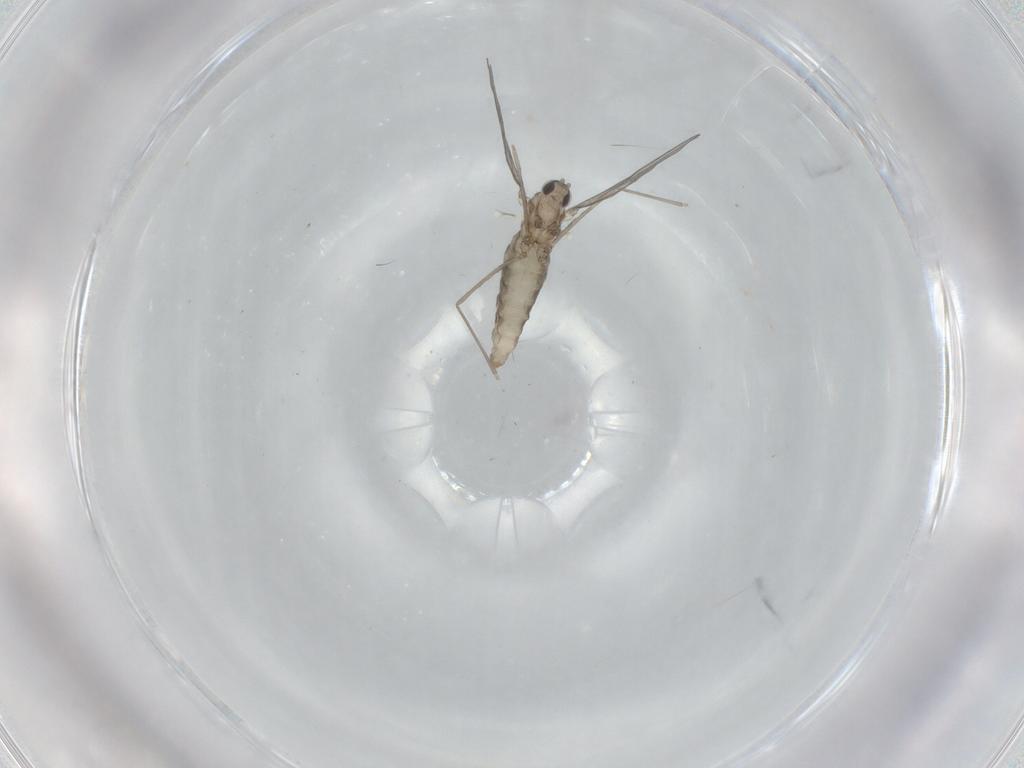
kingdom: Animalia
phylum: Arthropoda
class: Insecta
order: Diptera
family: Cecidomyiidae
